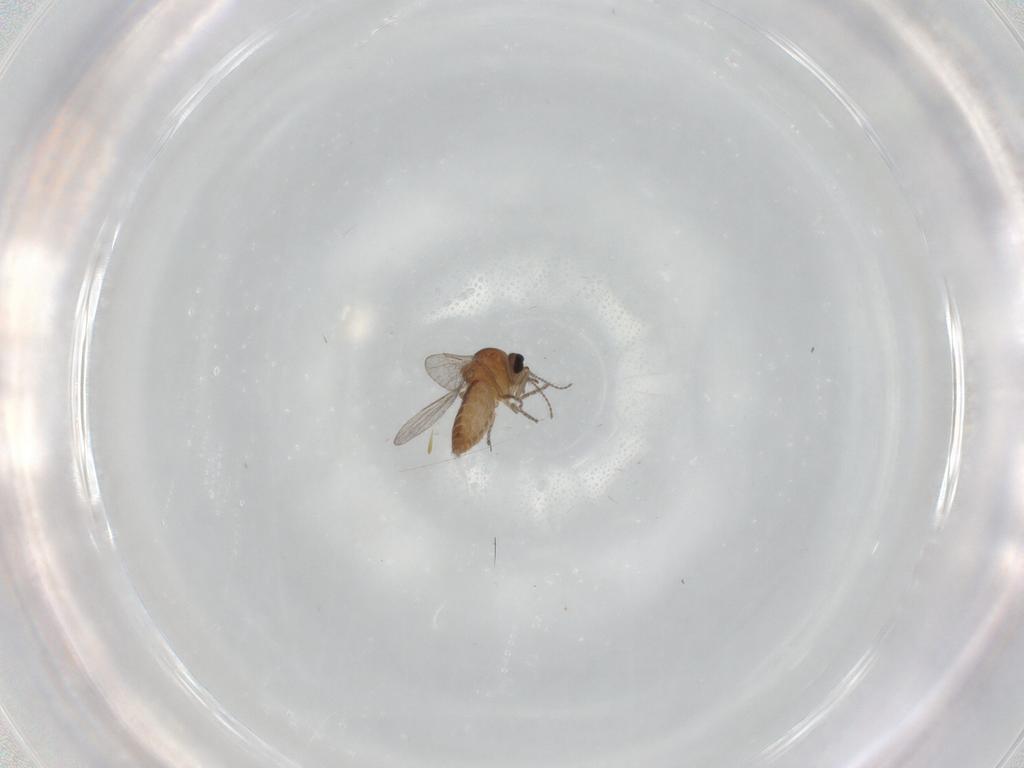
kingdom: Animalia
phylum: Arthropoda
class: Insecta
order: Diptera
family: Ceratopogonidae
